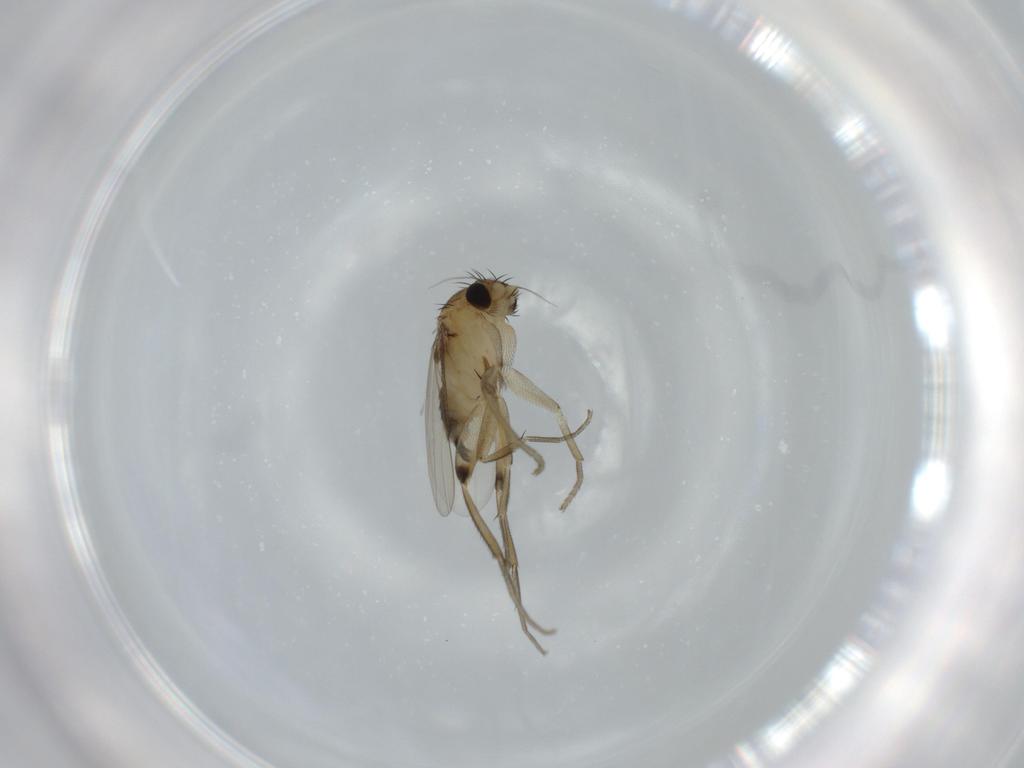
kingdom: Animalia
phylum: Arthropoda
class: Insecta
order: Diptera
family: Phoridae
